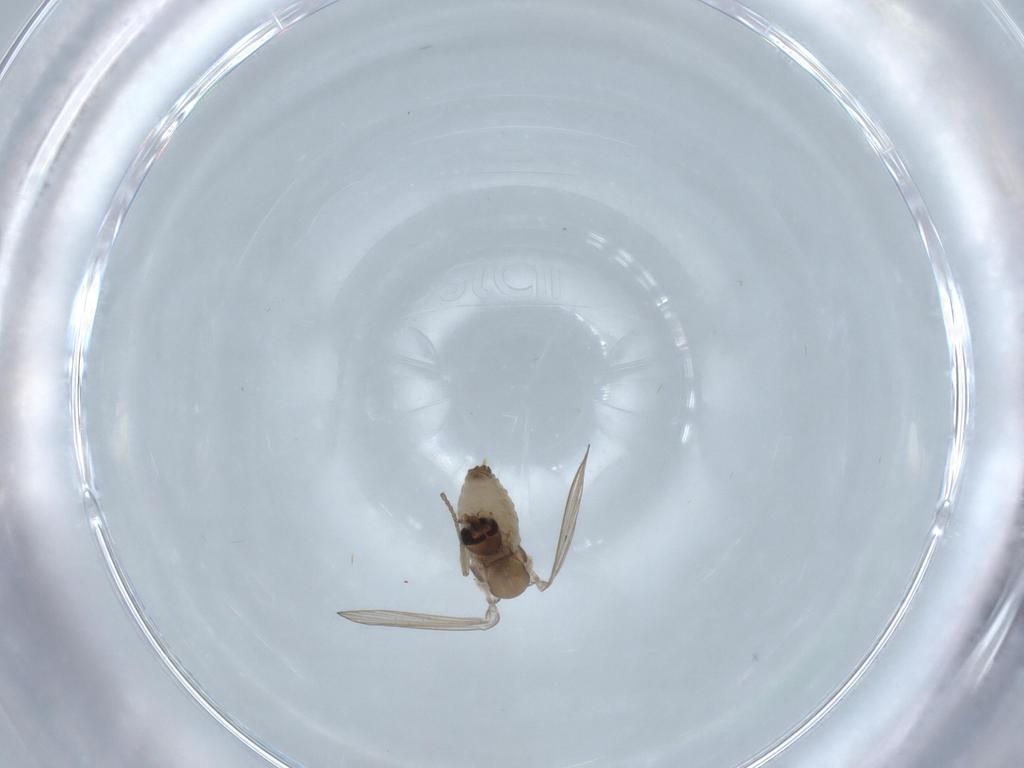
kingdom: Animalia
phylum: Arthropoda
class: Insecta
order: Diptera
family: Psychodidae
